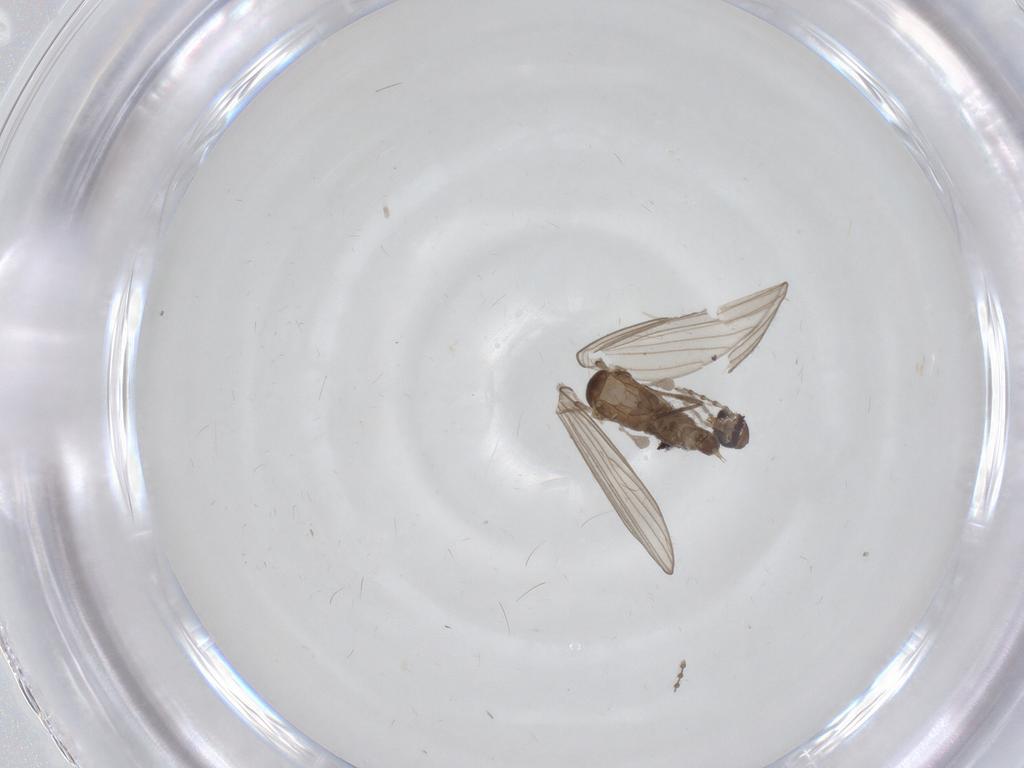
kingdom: Animalia
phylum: Arthropoda
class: Insecta
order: Diptera
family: Cecidomyiidae
